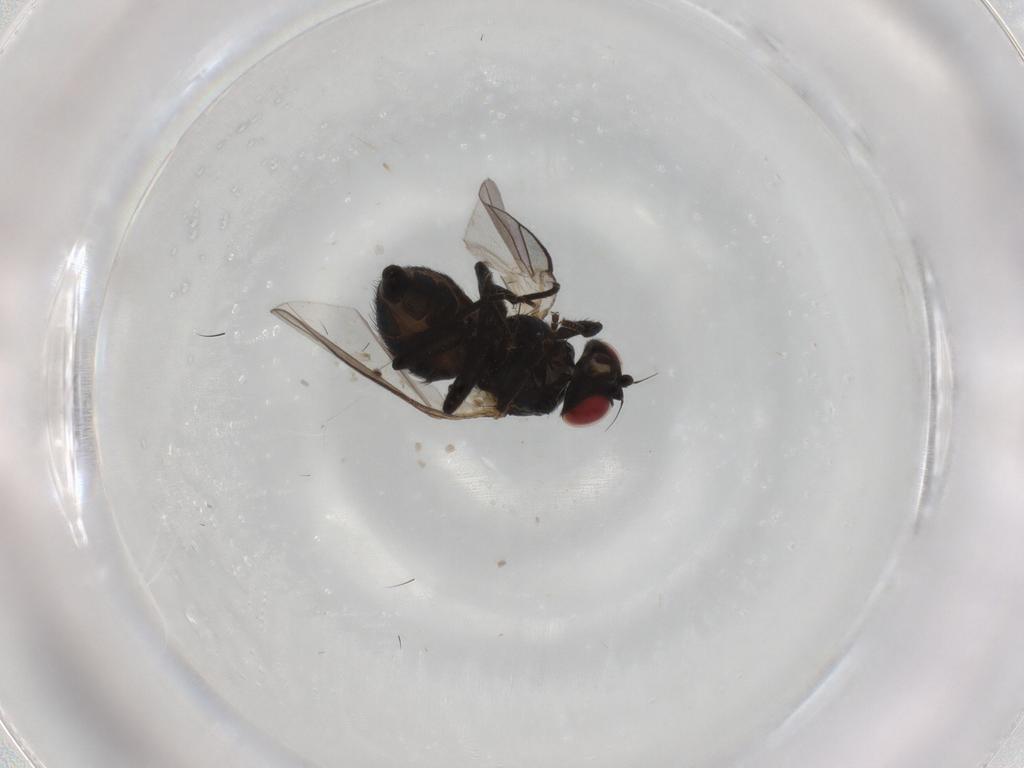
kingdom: Animalia
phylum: Arthropoda
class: Insecta
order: Diptera
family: Agromyzidae
